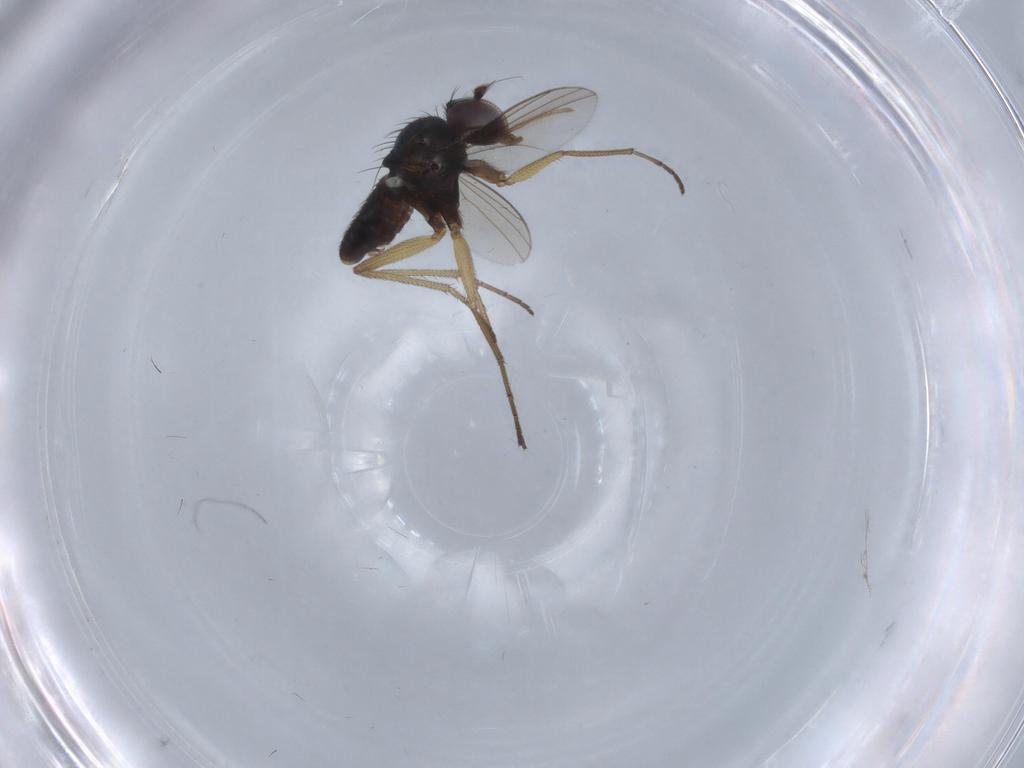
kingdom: Animalia
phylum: Arthropoda
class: Insecta
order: Diptera
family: Dolichopodidae
